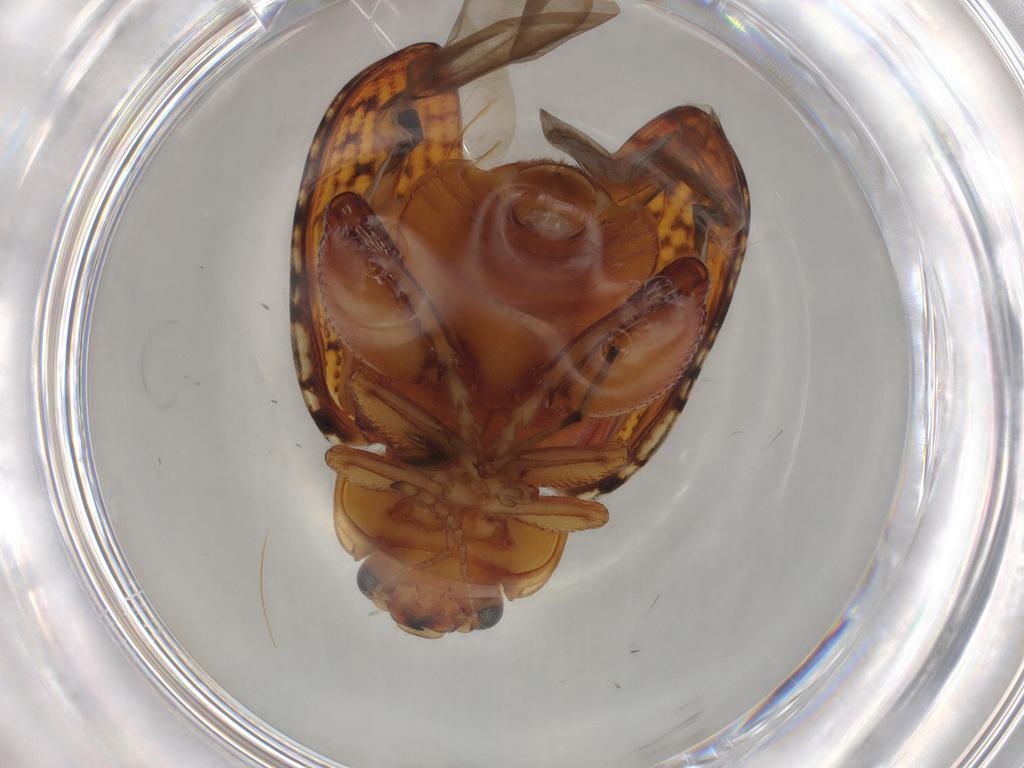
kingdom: Animalia
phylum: Arthropoda
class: Insecta
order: Diptera
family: Ceratopogonidae
